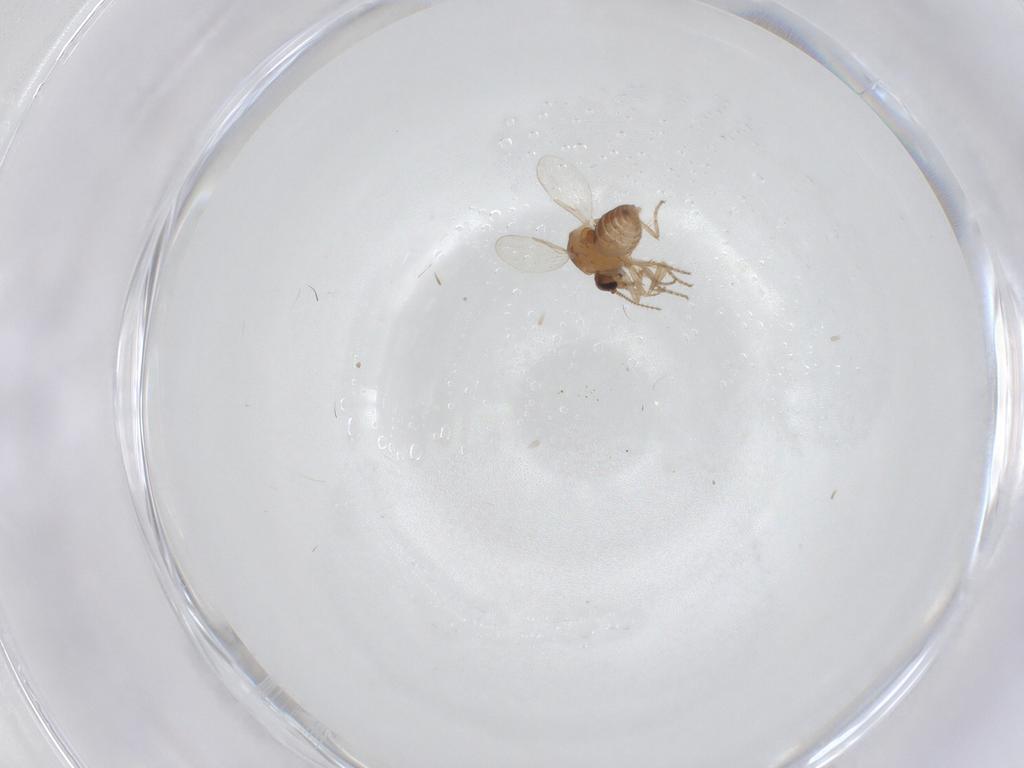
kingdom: Animalia
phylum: Arthropoda
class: Insecta
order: Diptera
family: Ceratopogonidae
